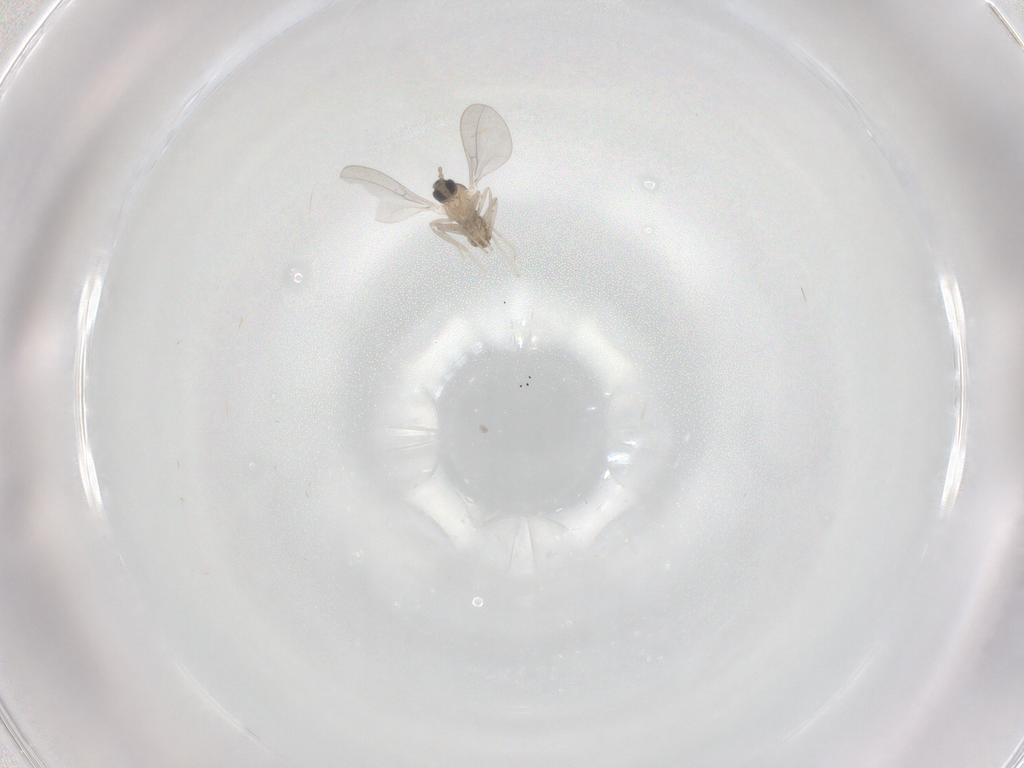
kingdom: Animalia
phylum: Arthropoda
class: Insecta
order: Diptera
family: Cecidomyiidae
